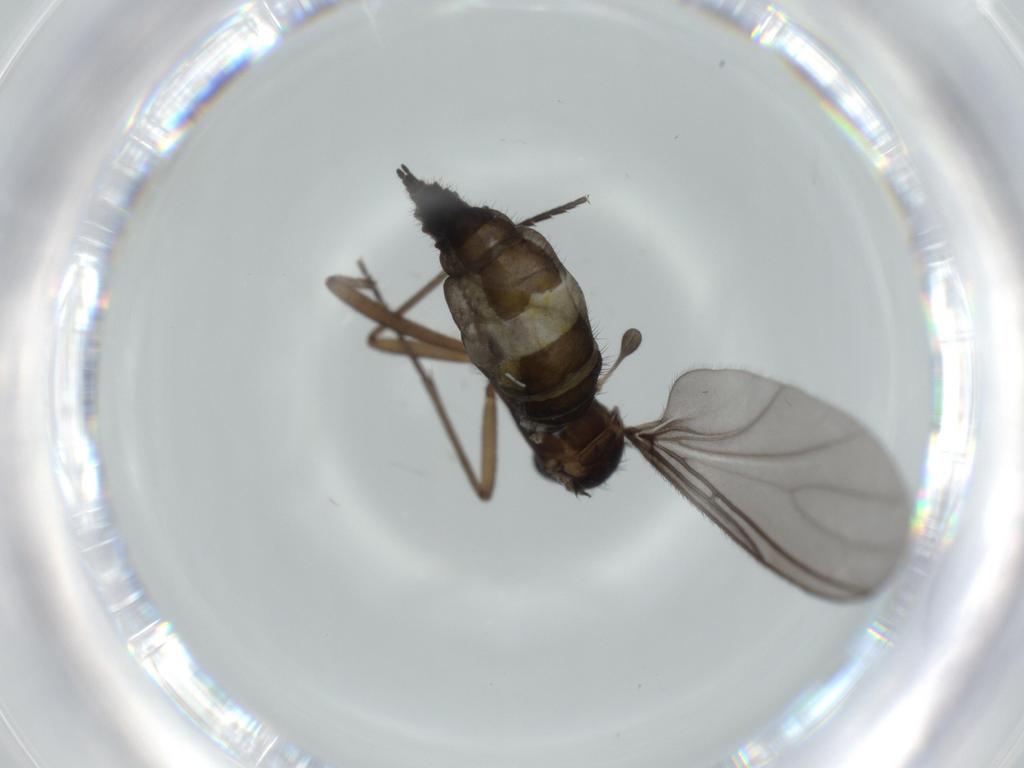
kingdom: Animalia
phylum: Arthropoda
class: Insecta
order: Diptera
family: Sciaridae
